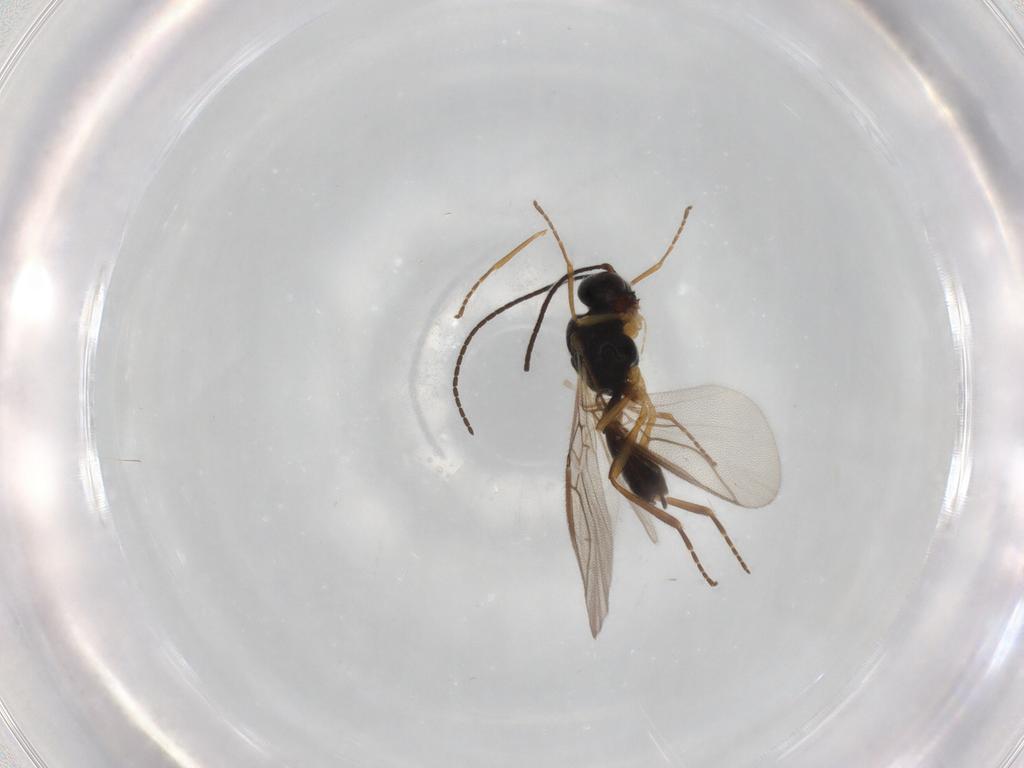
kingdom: Animalia
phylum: Arthropoda
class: Insecta
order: Hymenoptera
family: Braconidae
